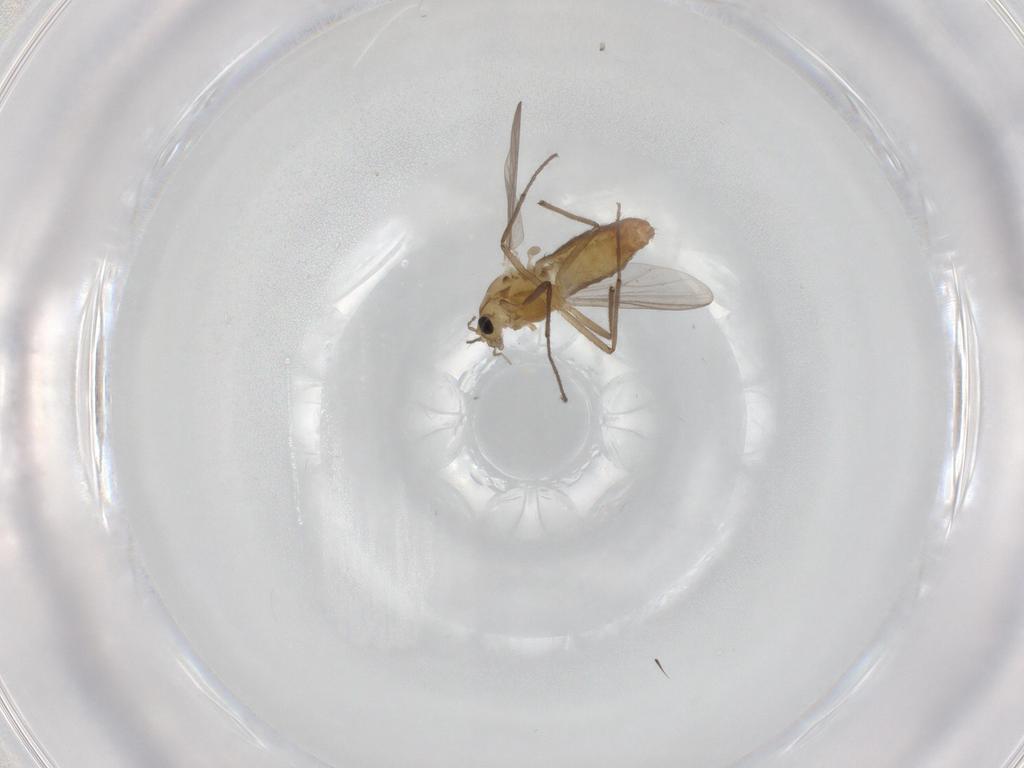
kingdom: Animalia
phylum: Arthropoda
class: Insecta
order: Diptera
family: Chironomidae
